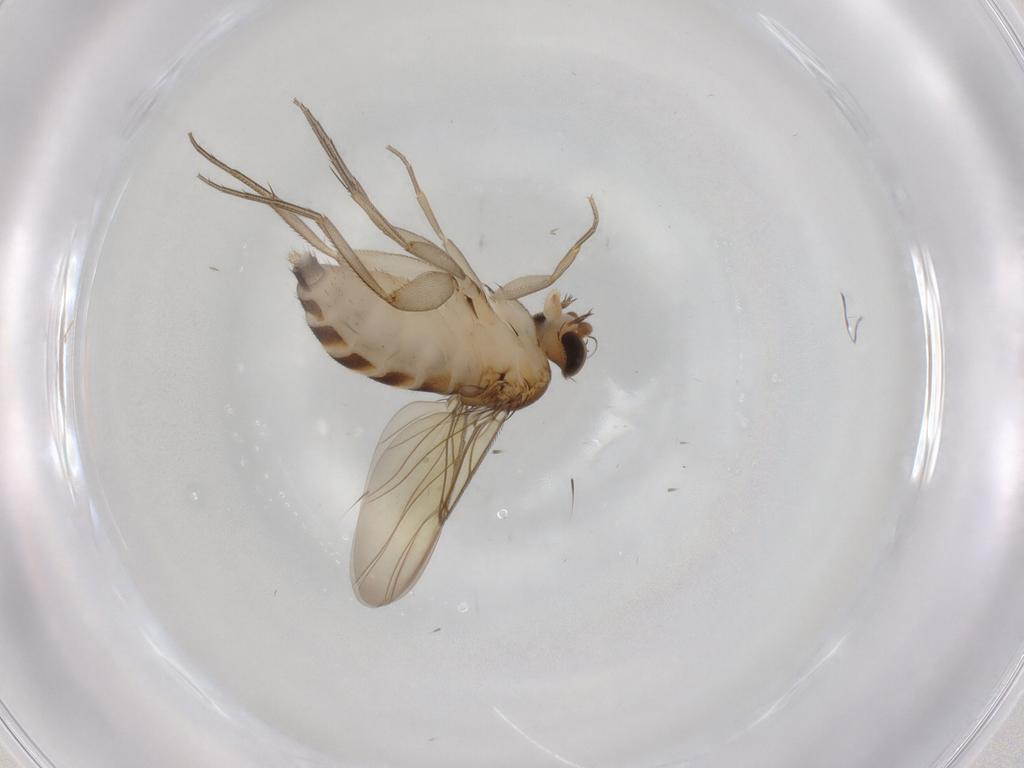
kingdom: Animalia
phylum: Arthropoda
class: Insecta
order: Diptera
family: Phoridae
